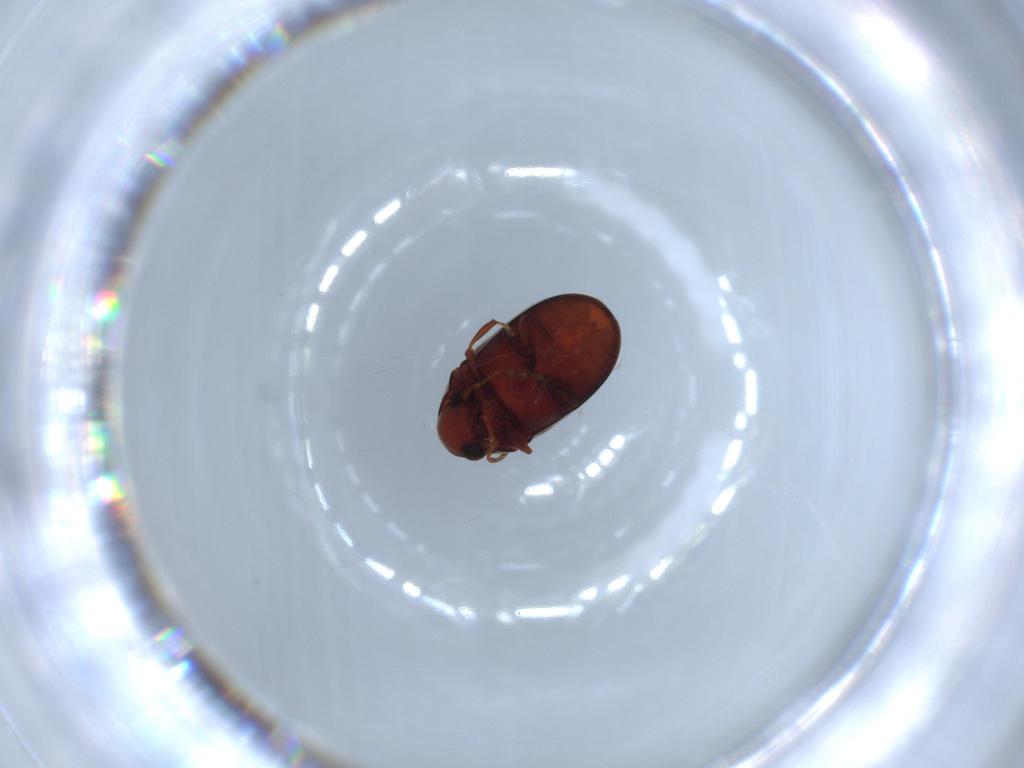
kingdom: Animalia
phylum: Arthropoda
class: Insecta
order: Coleoptera
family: Ptinidae
